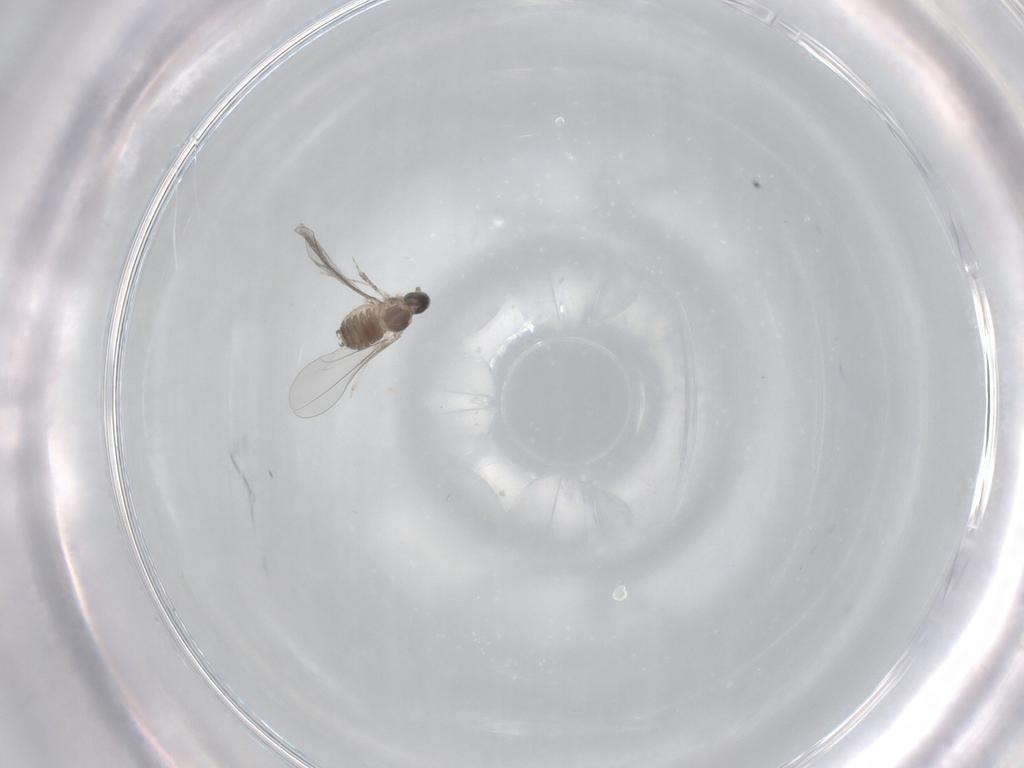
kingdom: Animalia
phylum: Arthropoda
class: Insecta
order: Diptera
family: Cecidomyiidae
